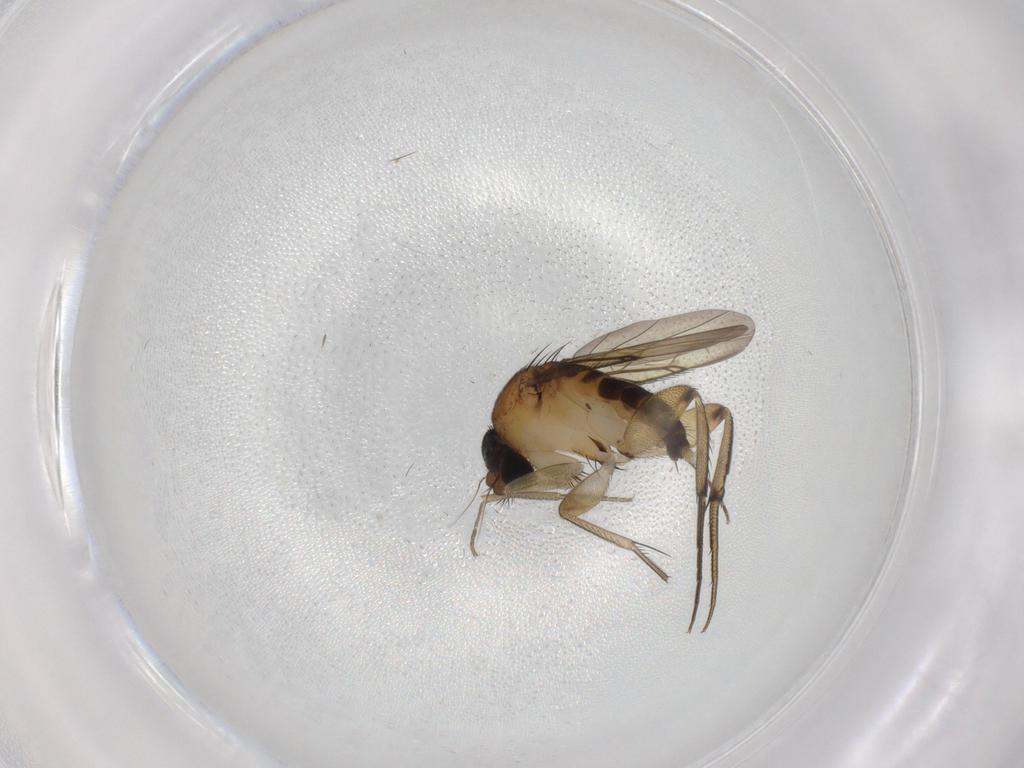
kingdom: Animalia
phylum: Arthropoda
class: Insecta
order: Diptera
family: Phoridae
